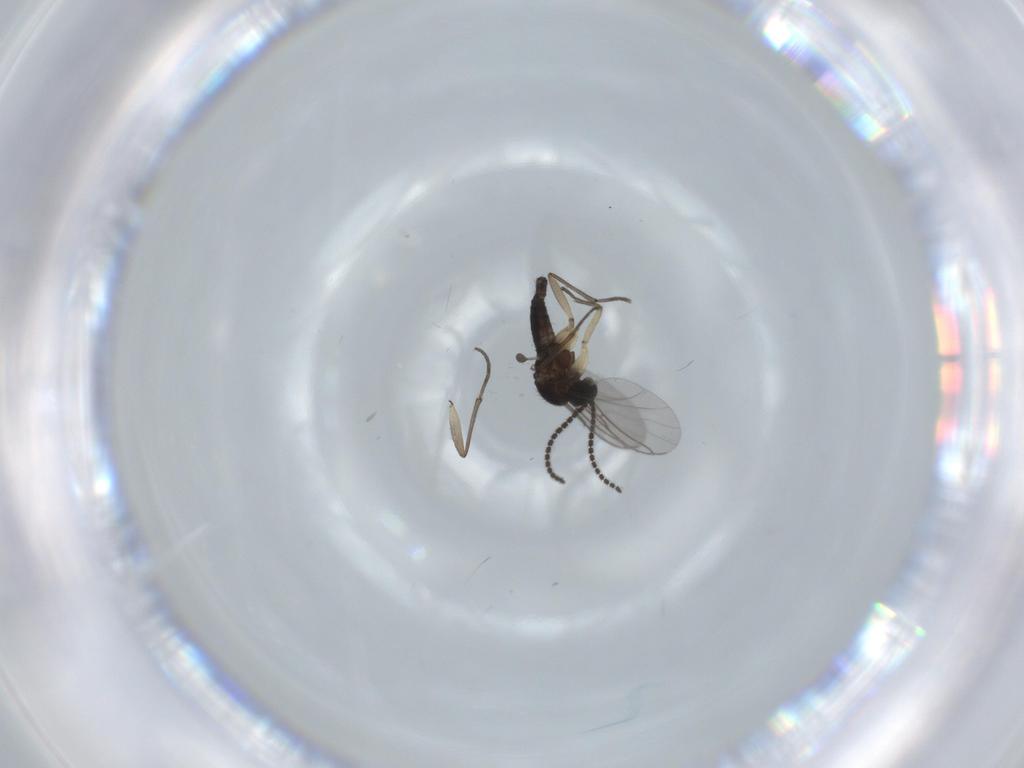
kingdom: Animalia
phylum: Arthropoda
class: Insecta
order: Diptera
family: Sciaridae
